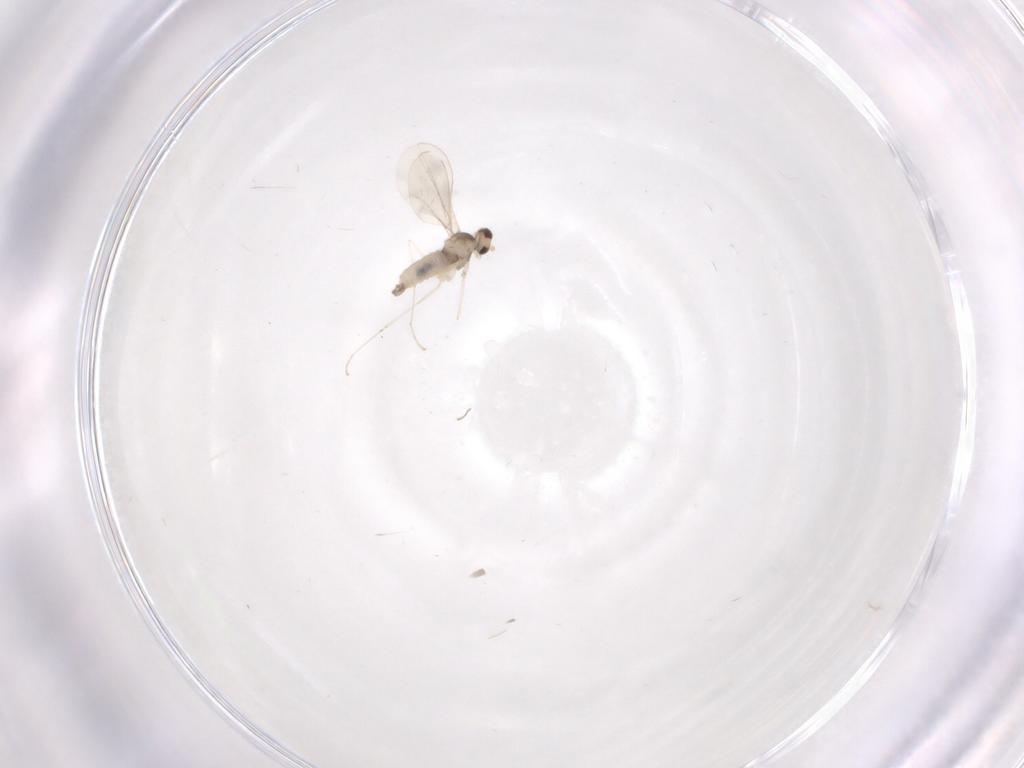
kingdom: Animalia
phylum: Arthropoda
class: Insecta
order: Diptera
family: Cecidomyiidae
